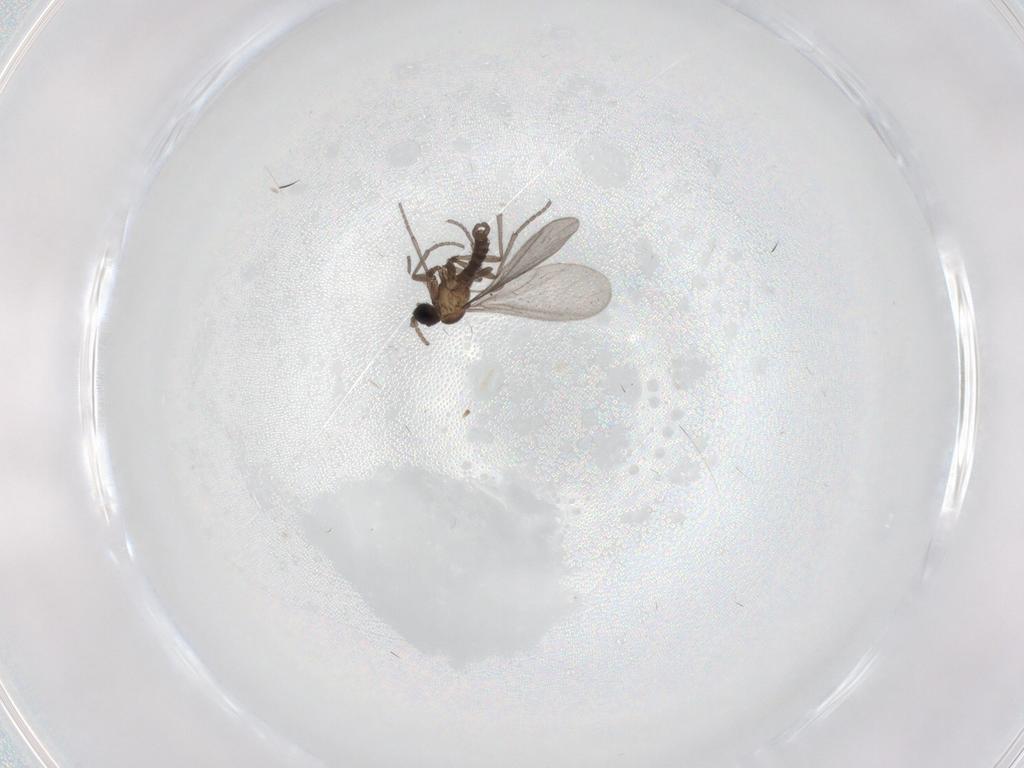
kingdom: Animalia
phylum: Arthropoda
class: Insecta
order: Diptera
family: Sciaridae
